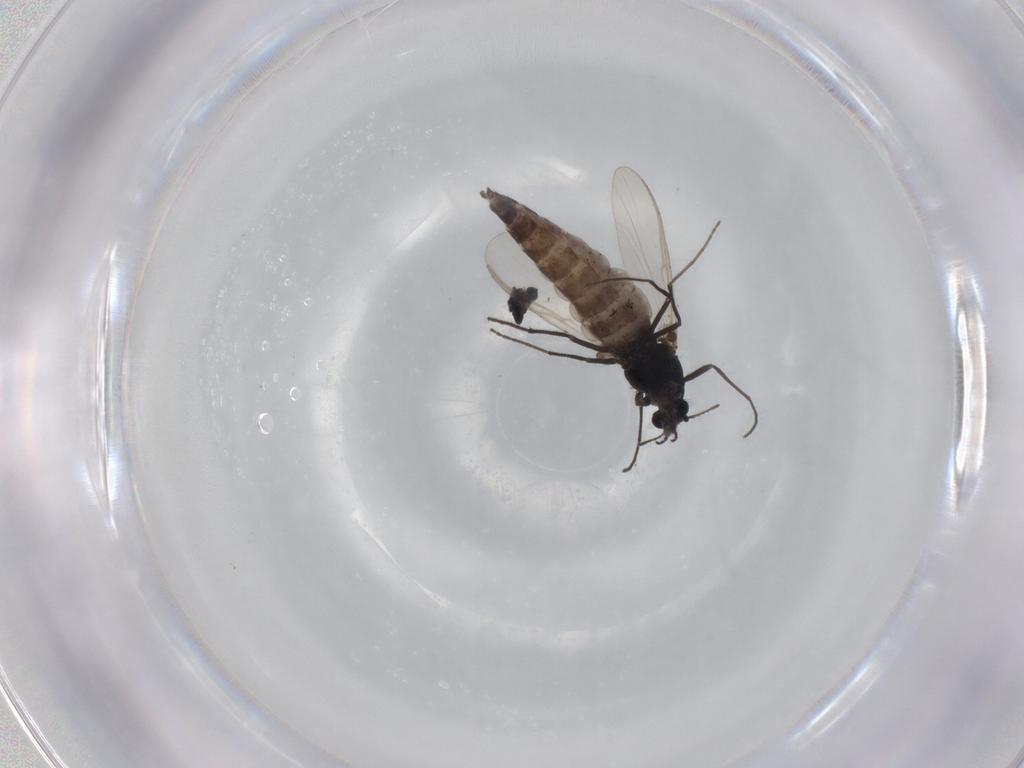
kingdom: Animalia
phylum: Arthropoda
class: Insecta
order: Diptera
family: Chironomidae
